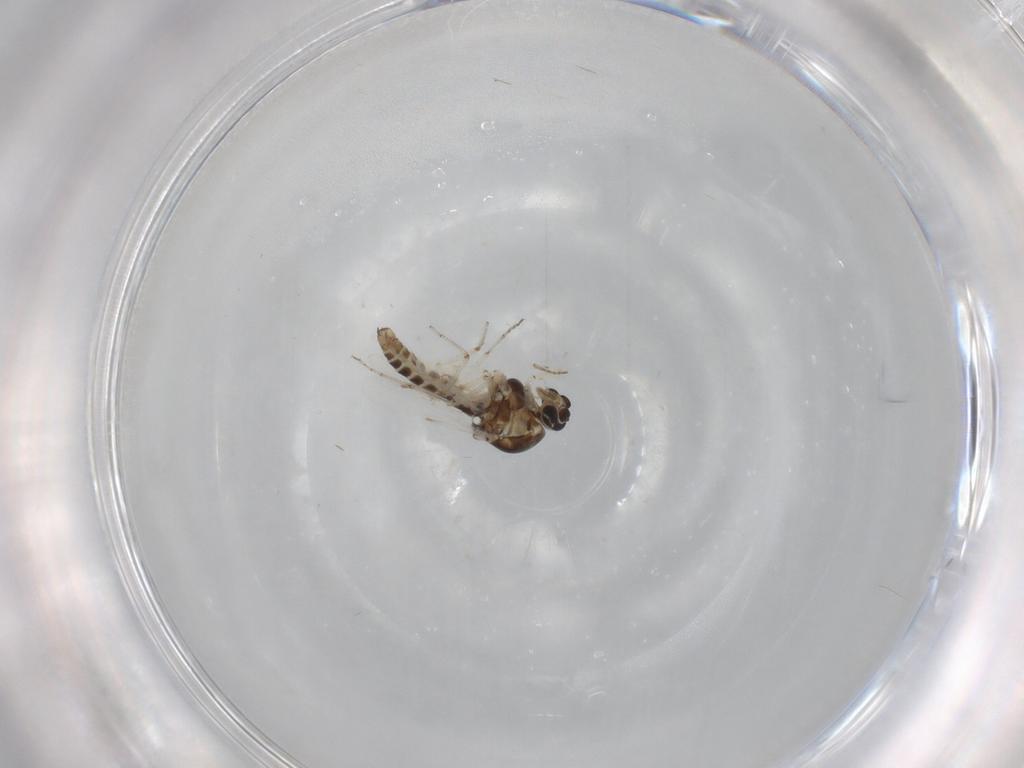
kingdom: Animalia
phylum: Arthropoda
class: Insecta
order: Diptera
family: Ceratopogonidae
